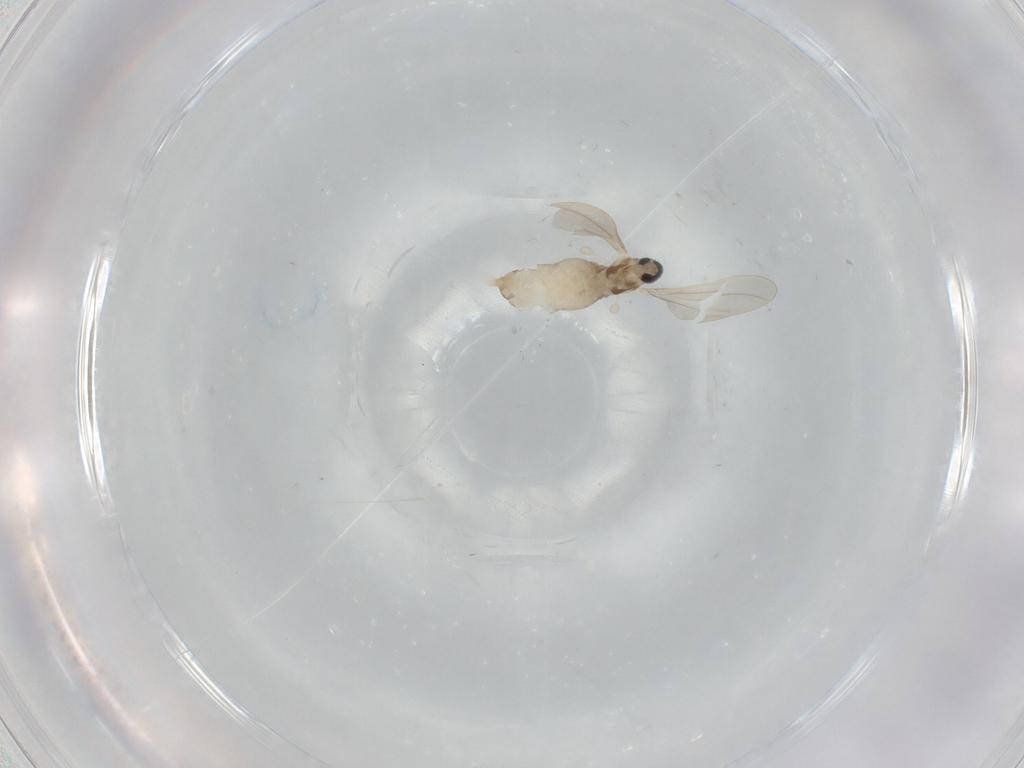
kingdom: Animalia
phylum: Arthropoda
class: Insecta
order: Diptera
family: Cecidomyiidae
